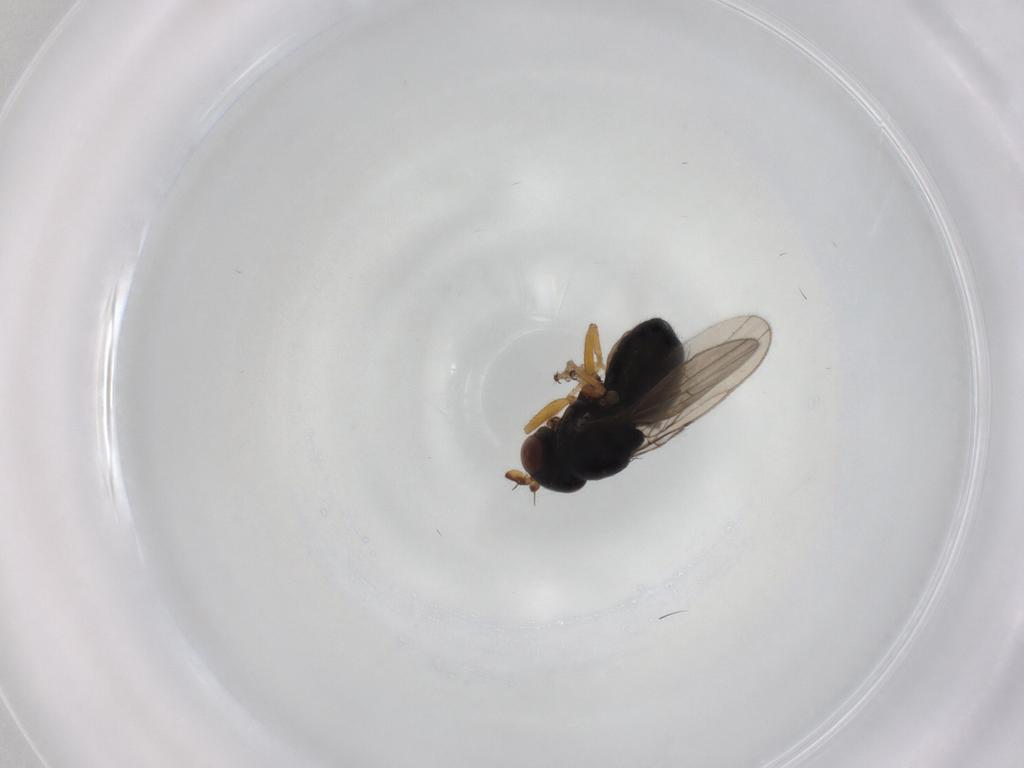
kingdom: Animalia
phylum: Arthropoda
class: Insecta
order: Diptera
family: Ephydridae
